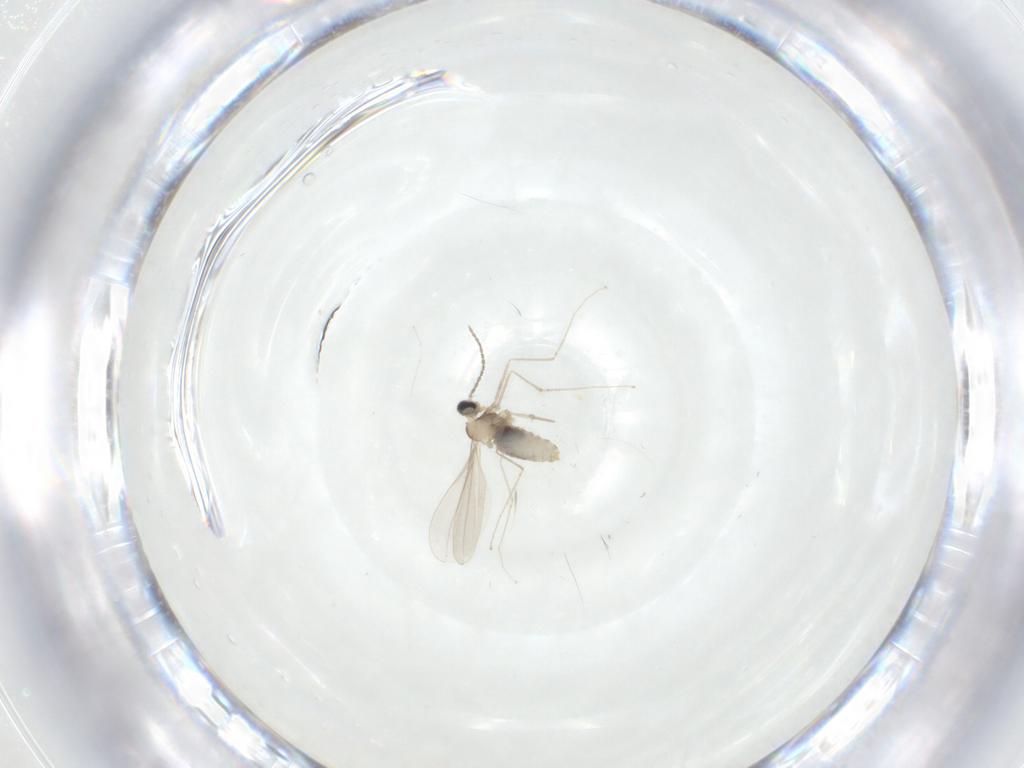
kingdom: Animalia
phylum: Arthropoda
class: Insecta
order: Diptera
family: Cecidomyiidae
